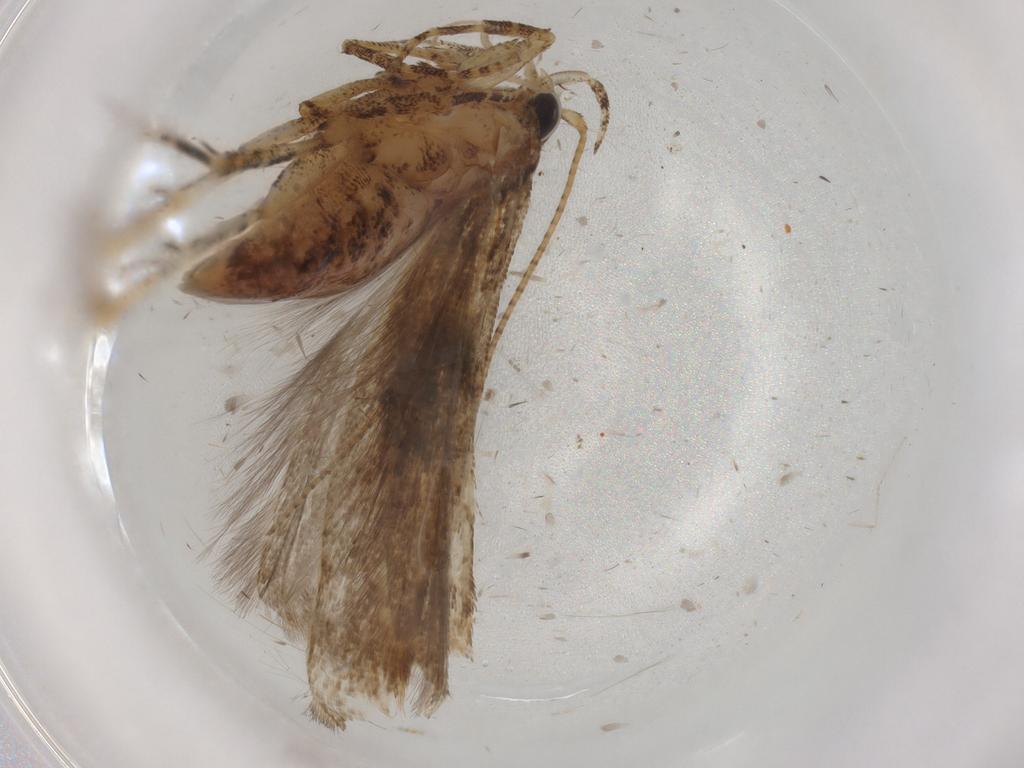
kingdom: Animalia
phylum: Arthropoda
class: Insecta
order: Lepidoptera
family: Notodontidae
